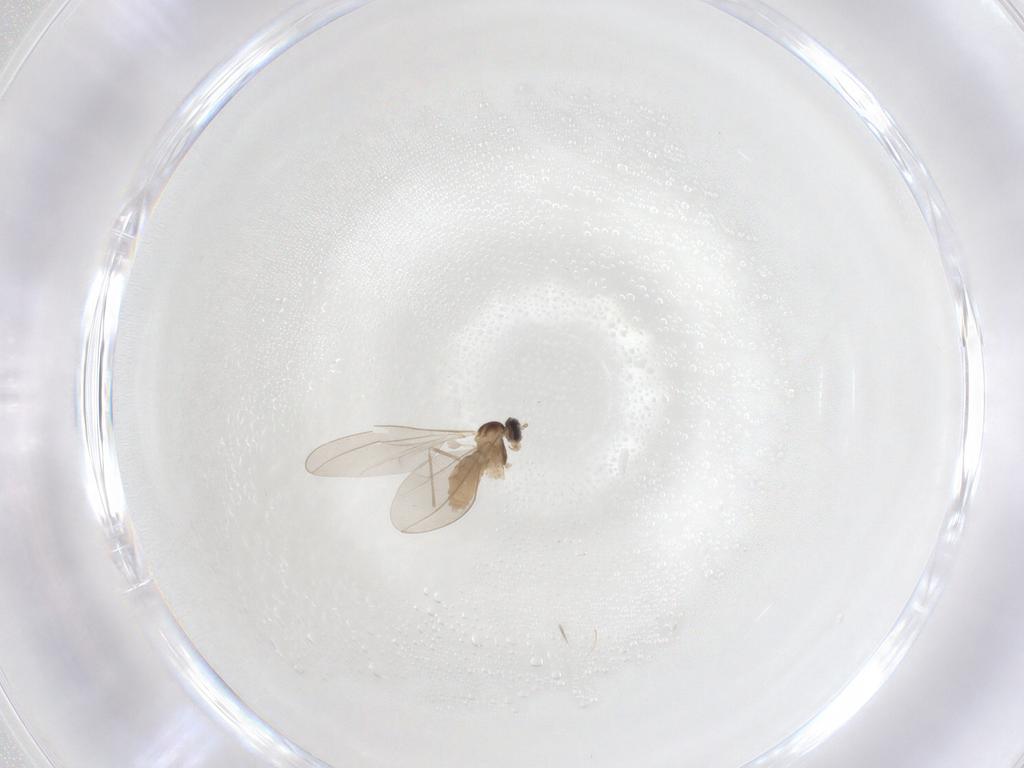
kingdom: Animalia
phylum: Arthropoda
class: Insecta
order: Diptera
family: Cecidomyiidae
